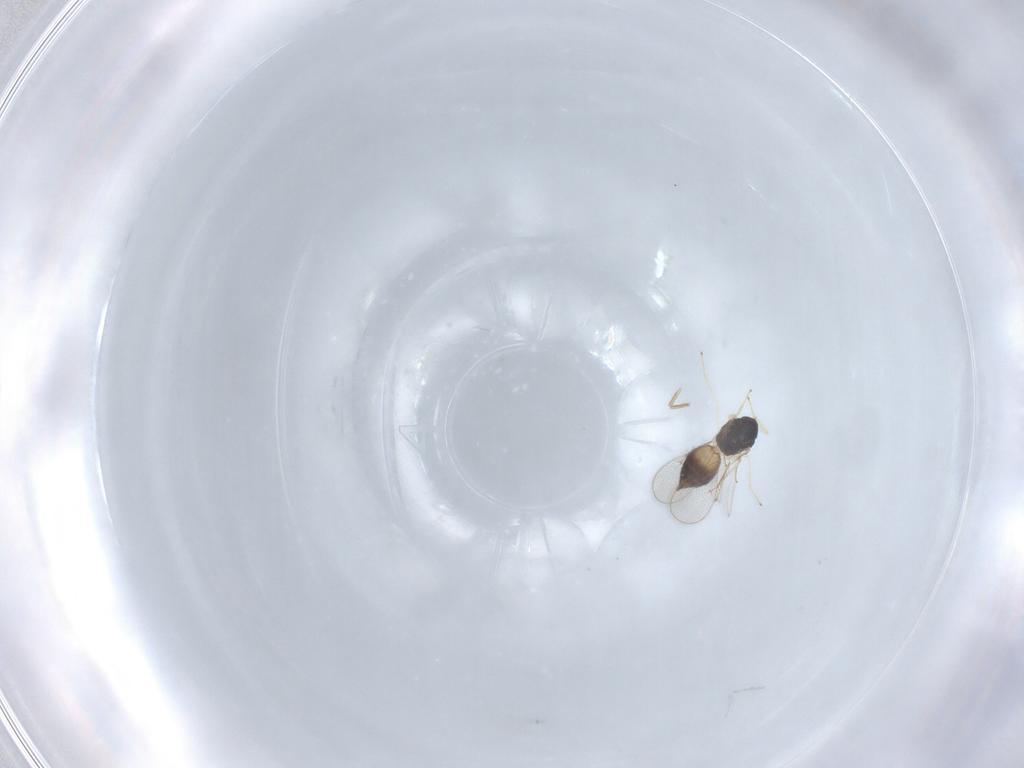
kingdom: Animalia
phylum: Arthropoda
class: Insecta
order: Hymenoptera
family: Eulophidae
